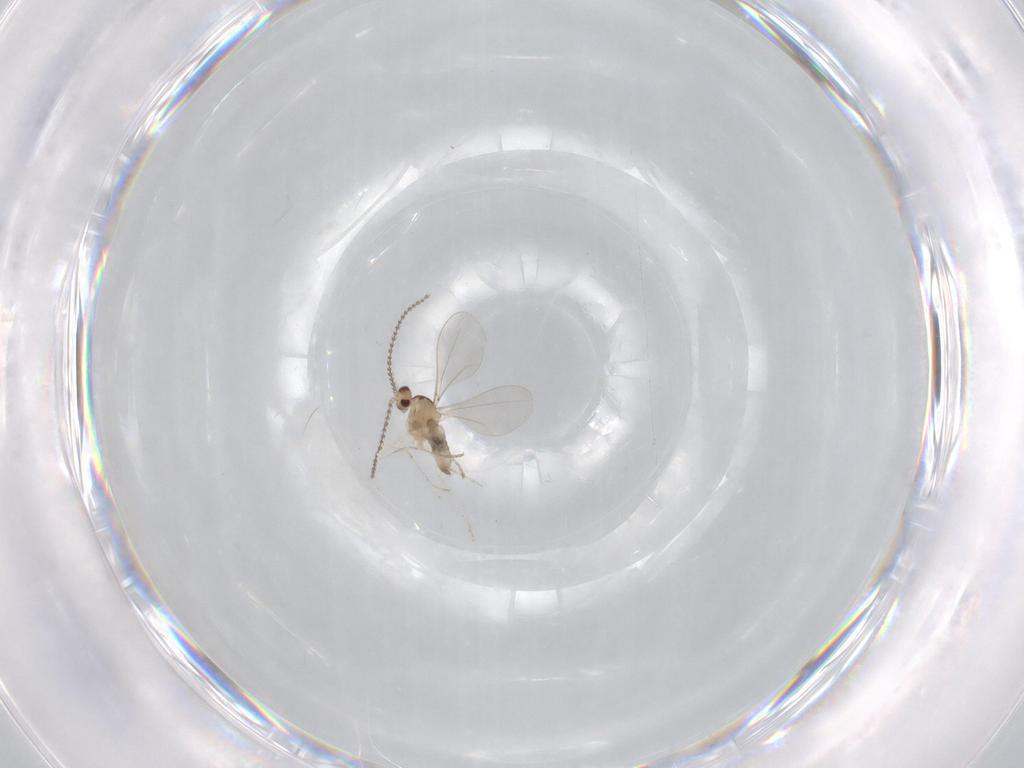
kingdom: Animalia
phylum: Arthropoda
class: Insecta
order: Diptera
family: Cecidomyiidae
